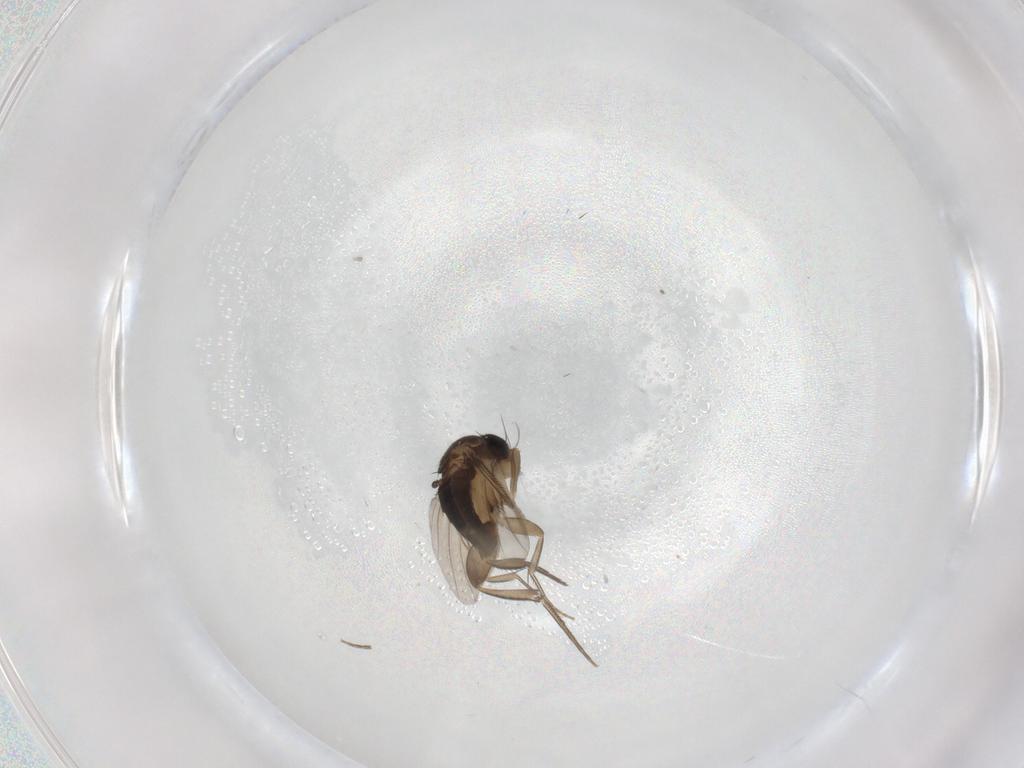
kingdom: Animalia
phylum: Arthropoda
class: Insecta
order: Diptera
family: Phoridae
